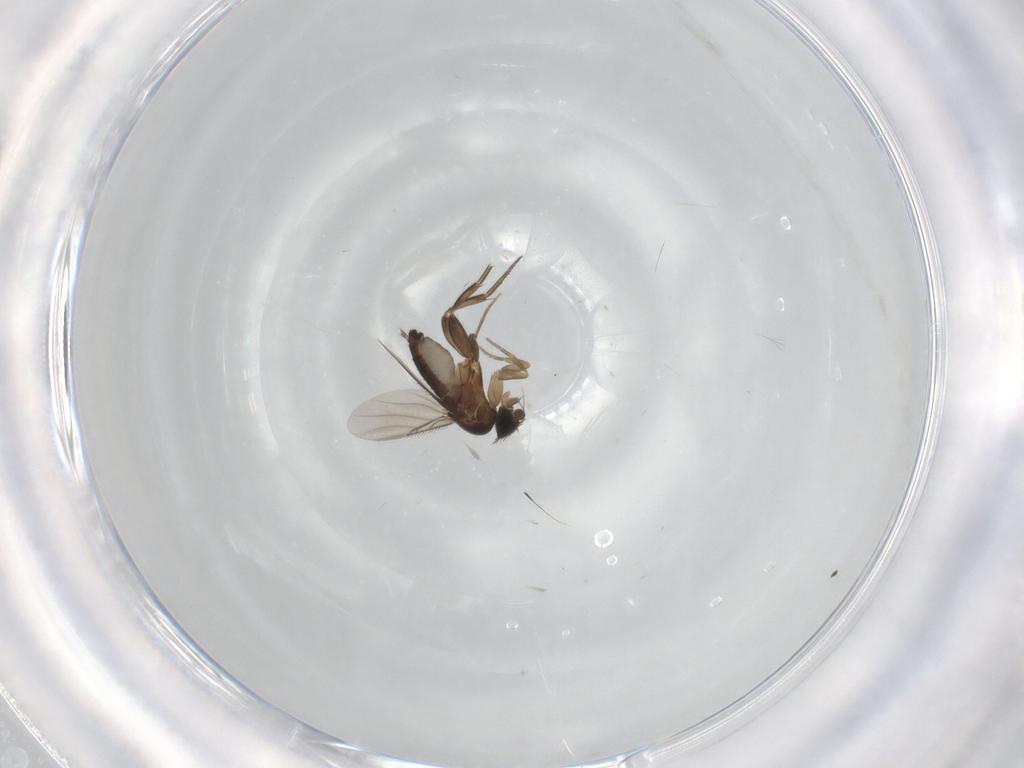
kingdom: Animalia
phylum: Arthropoda
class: Insecta
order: Diptera
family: Phoridae
